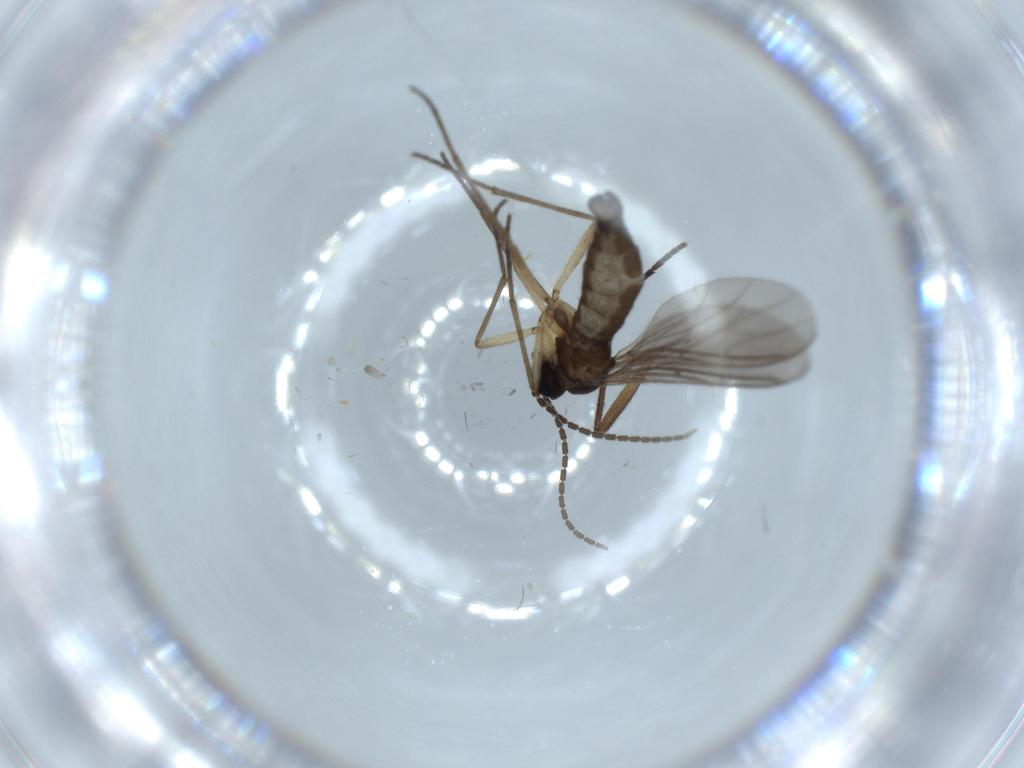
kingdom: Animalia
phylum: Arthropoda
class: Insecta
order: Diptera
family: Sciaridae
